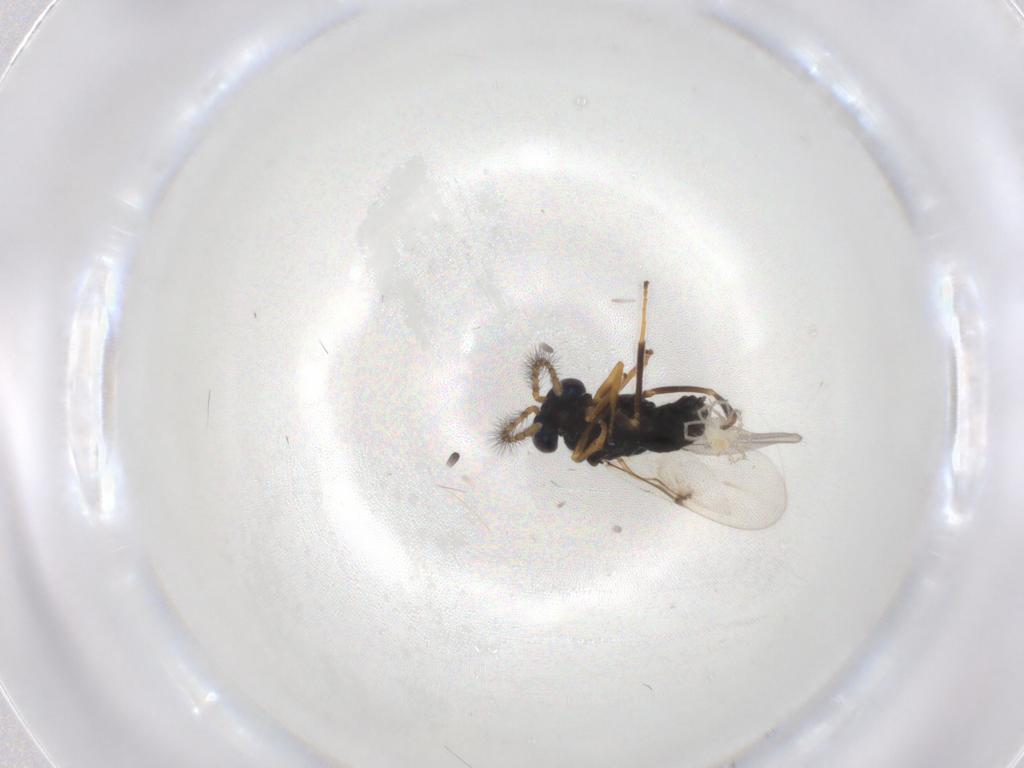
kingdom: Animalia
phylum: Arthropoda
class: Insecta
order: Hymenoptera
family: Encyrtidae
